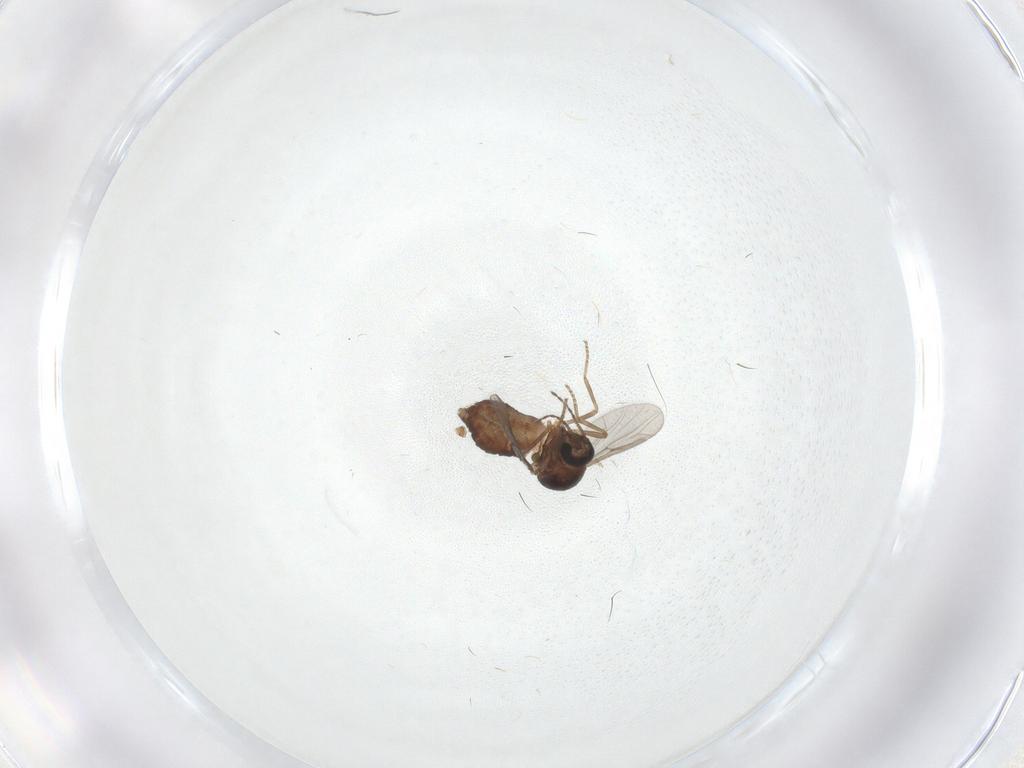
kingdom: Animalia
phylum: Arthropoda
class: Insecta
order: Diptera
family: Ceratopogonidae
